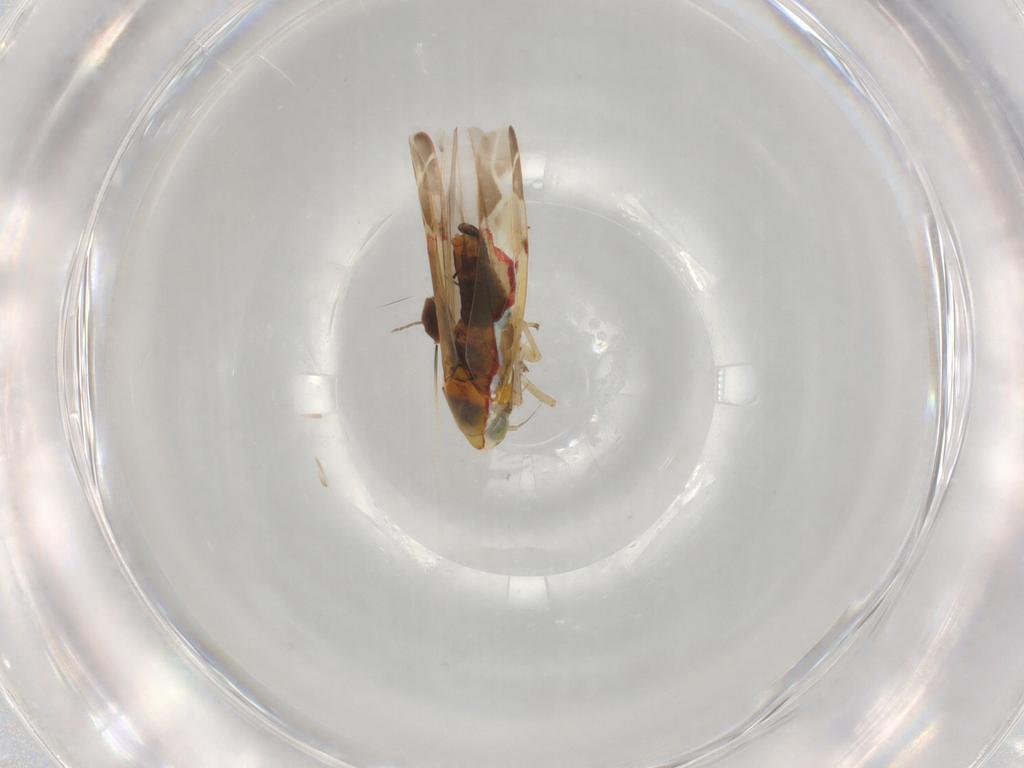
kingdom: Animalia
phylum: Arthropoda
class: Insecta
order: Hemiptera
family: Cicadellidae
